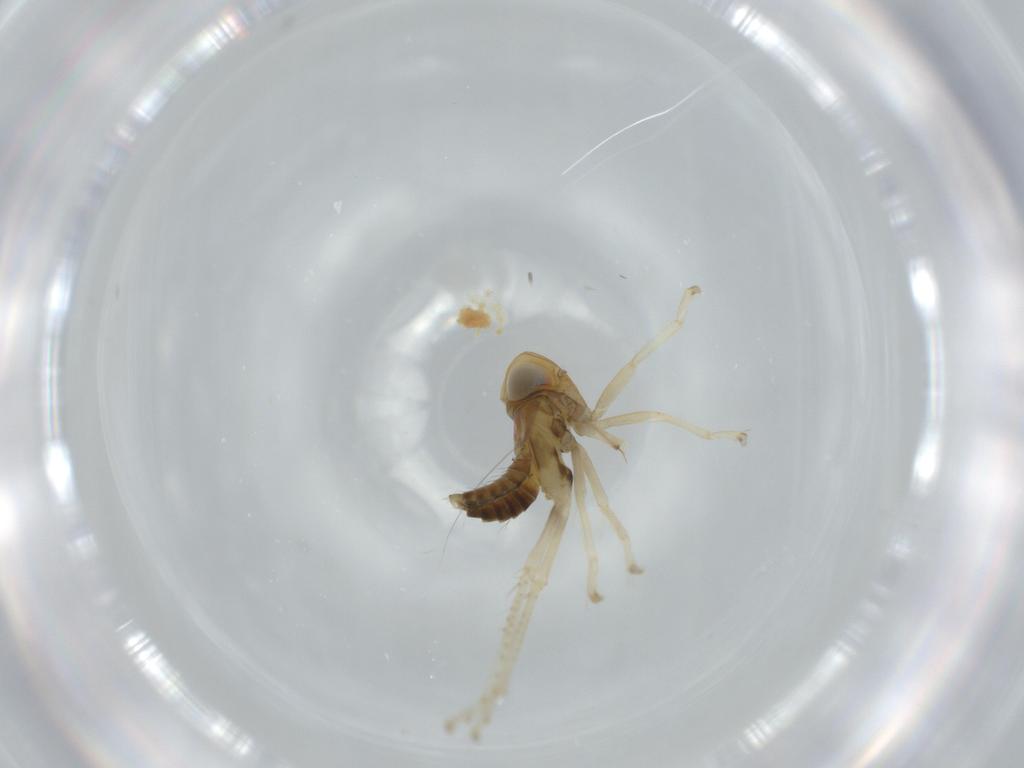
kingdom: Animalia
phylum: Arthropoda
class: Insecta
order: Hemiptera
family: Cicadellidae
